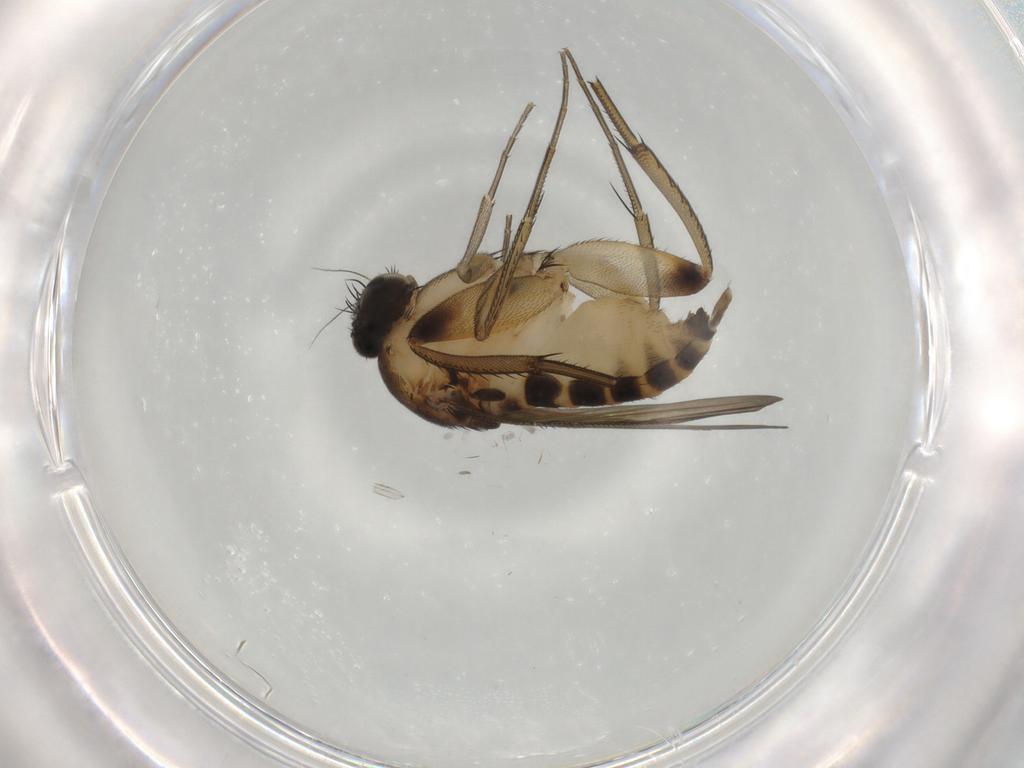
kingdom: Animalia
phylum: Arthropoda
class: Insecta
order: Diptera
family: Phoridae
